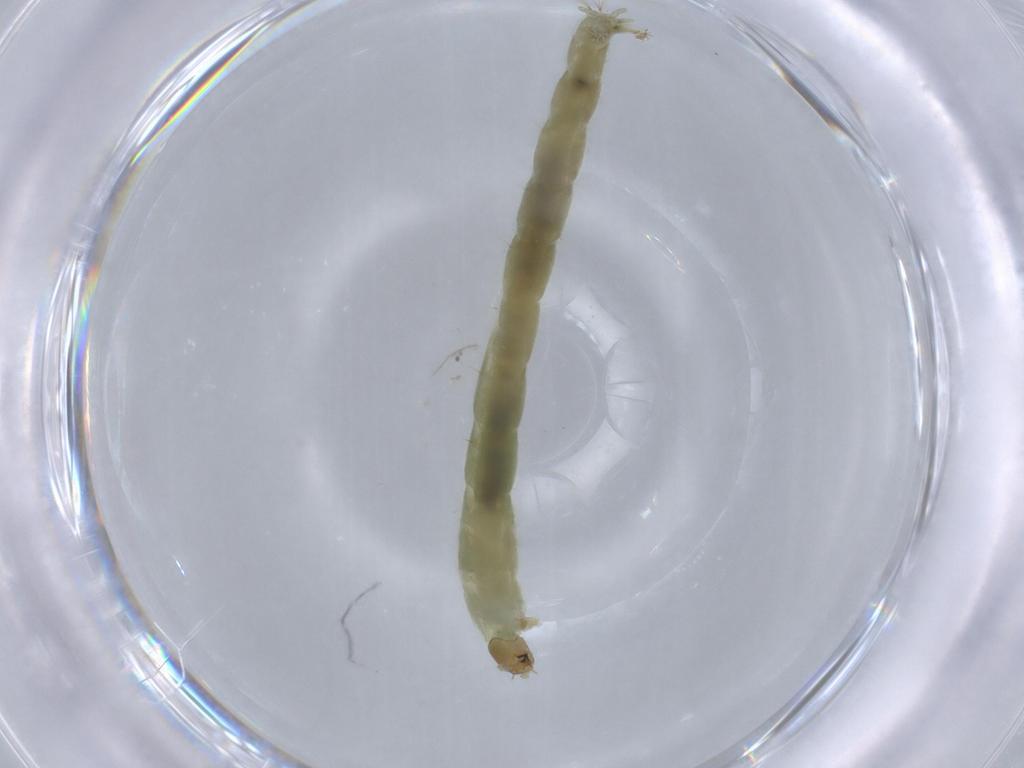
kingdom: Animalia
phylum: Arthropoda
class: Insecta
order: Diptera
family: Chironomidae
